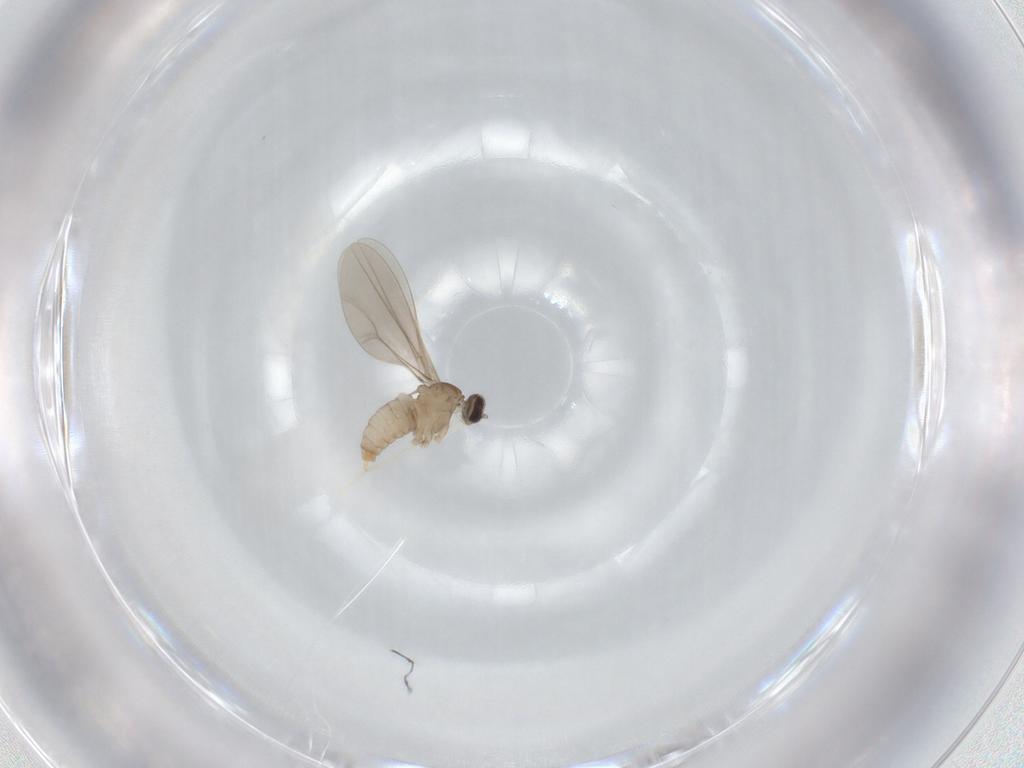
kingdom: Animalia
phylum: Arthropoda
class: Insecta
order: Diptera
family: Cecidomyiidae
